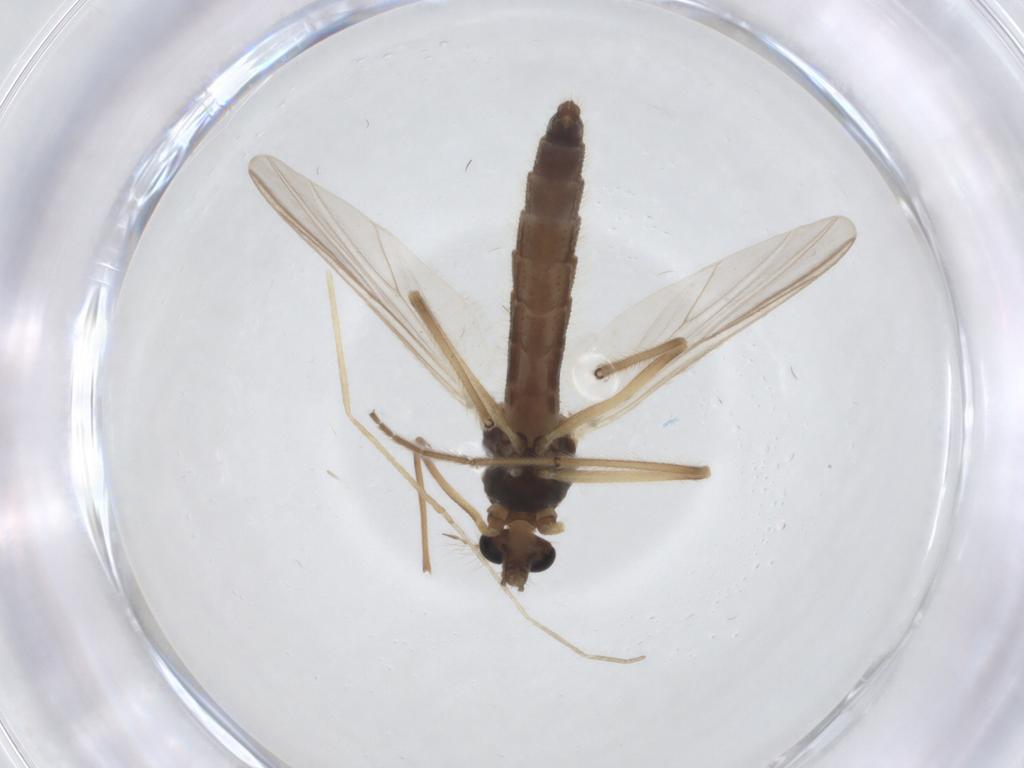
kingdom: Animalia
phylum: Arthropoda
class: Insecta
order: Diptera
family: Chironomidae
